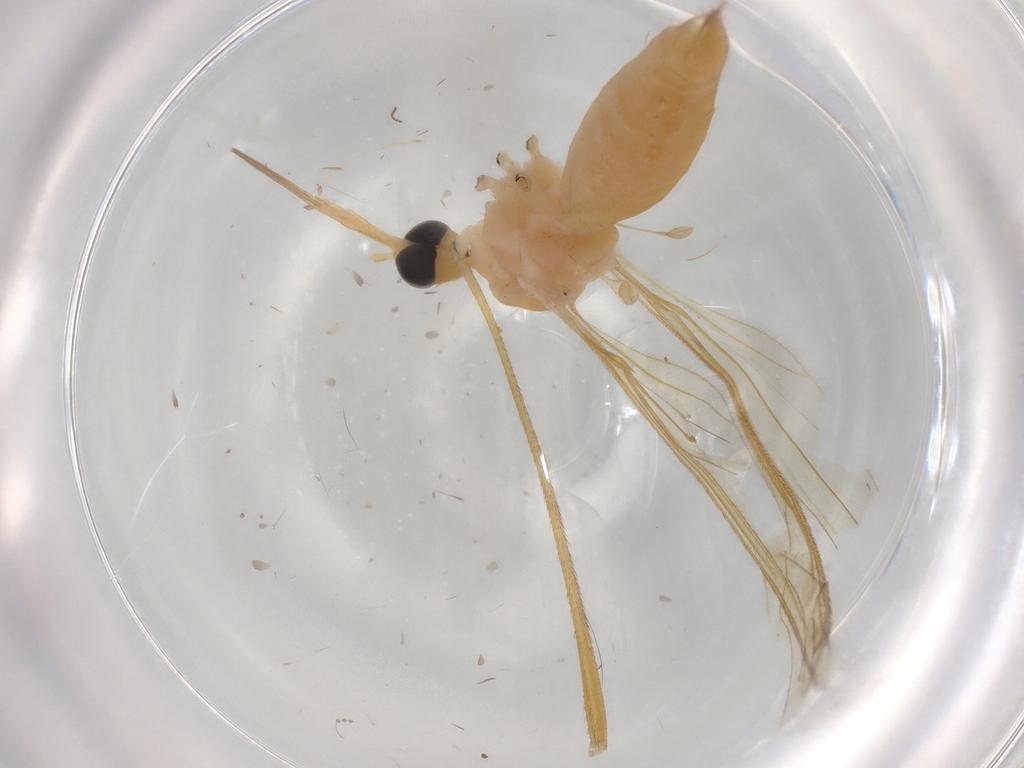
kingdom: Animalia
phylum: Arthropoda
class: Insecta
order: Diptera
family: Ceratopogonidae
